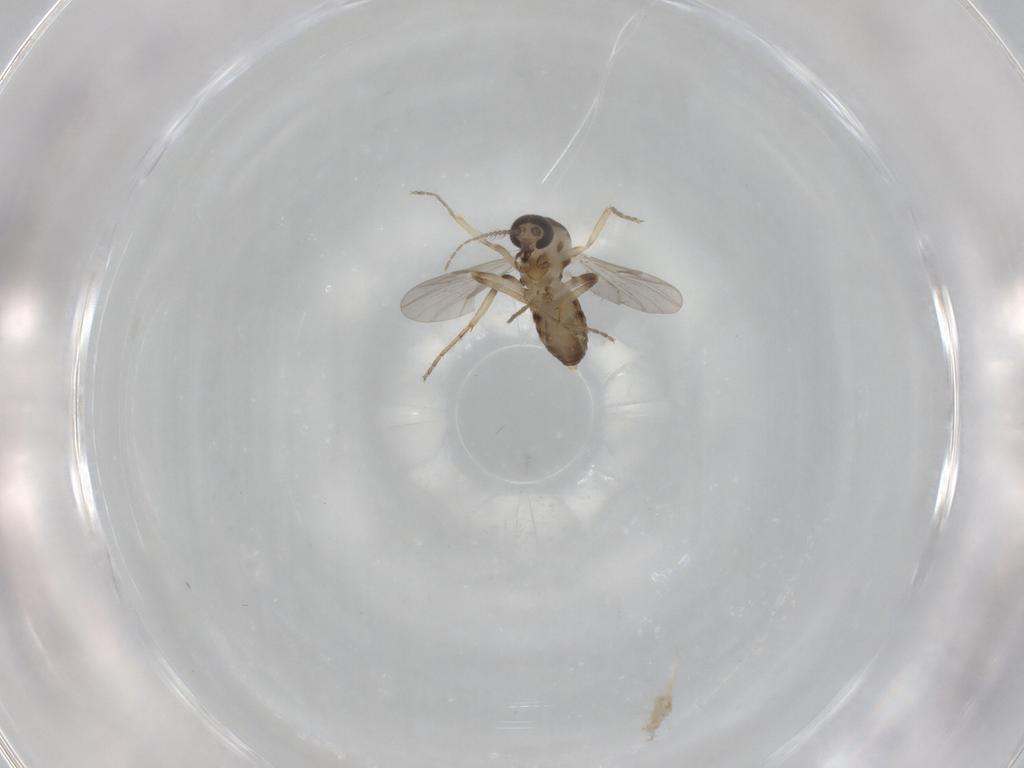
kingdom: Animalia
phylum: Arthropoda
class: Insecta
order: Diptera
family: Ceratopogonidae
